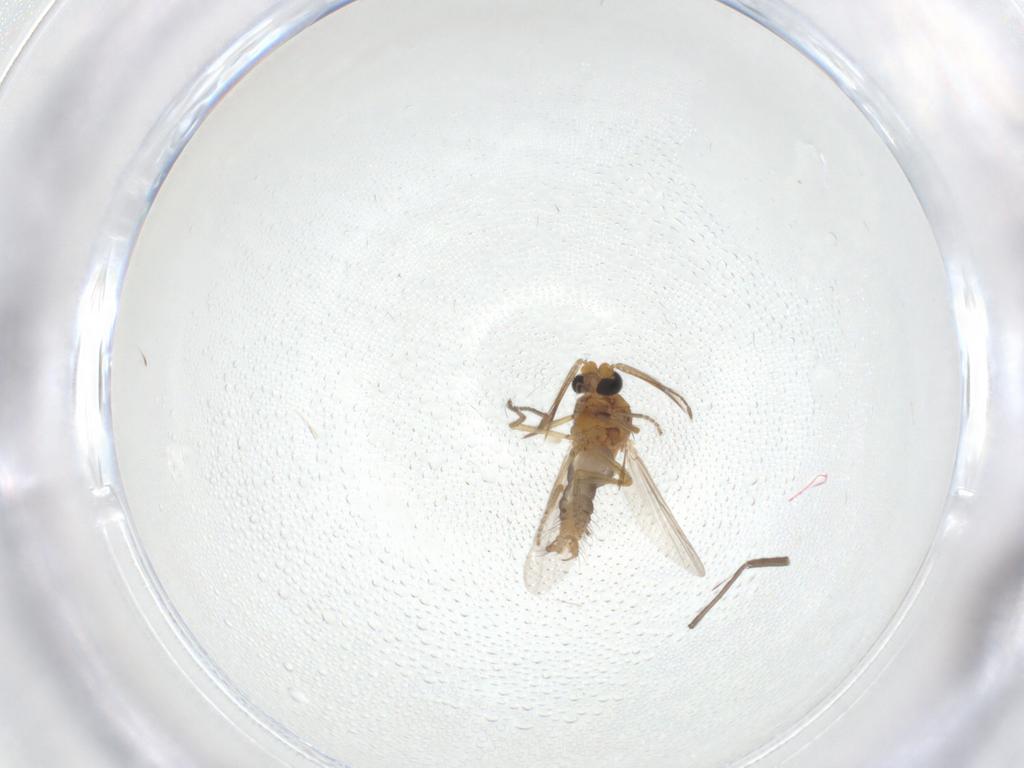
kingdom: Animalia
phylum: Arthropoda
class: Insecta
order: Diptera
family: Ceratopogonidae
